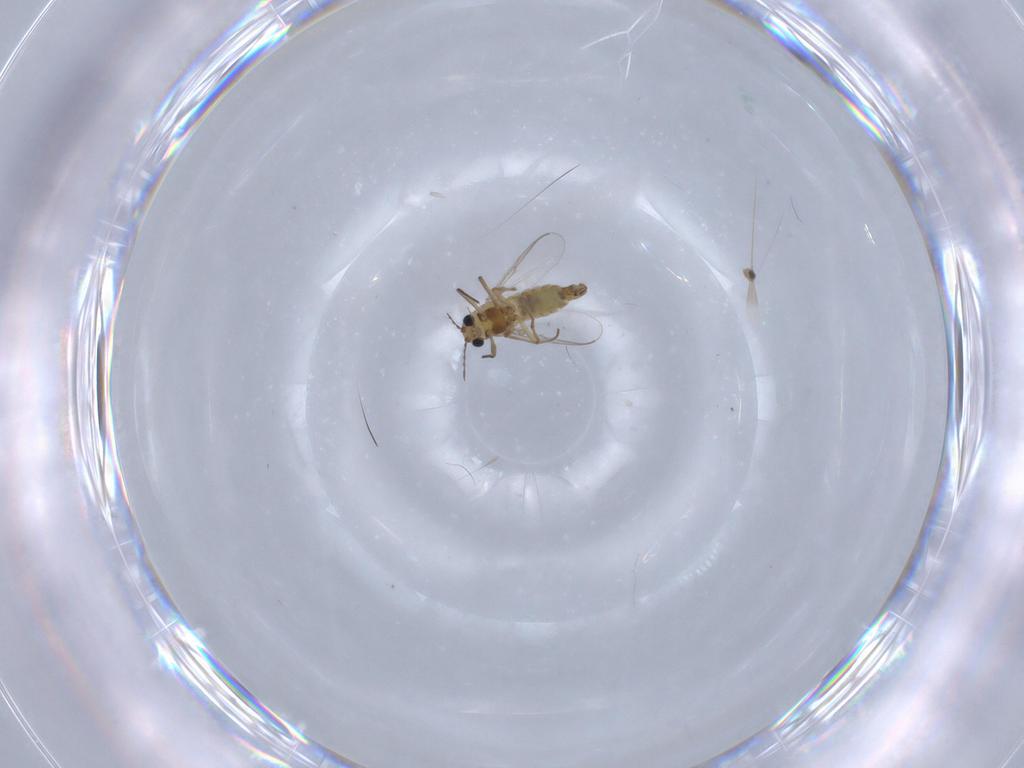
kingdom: Animalia
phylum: Arthropoda
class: Insecta
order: Diptera
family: Chironomidae
